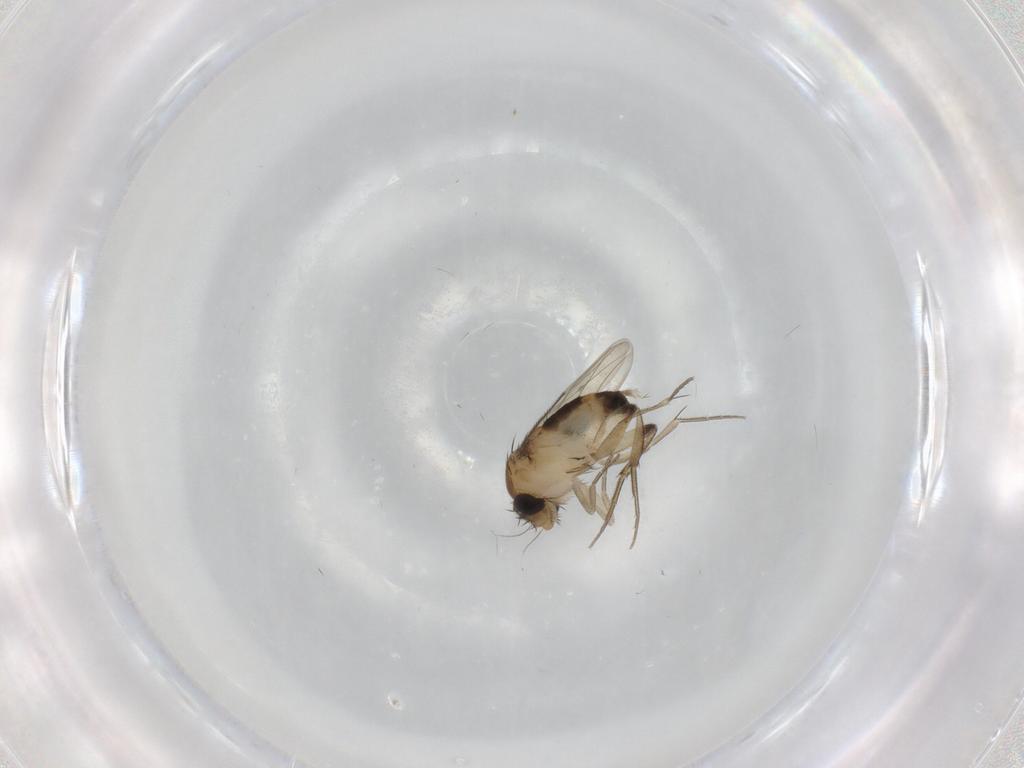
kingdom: Animalia
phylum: Arthropoda
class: Insecta
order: Diptera
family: Phoridae
